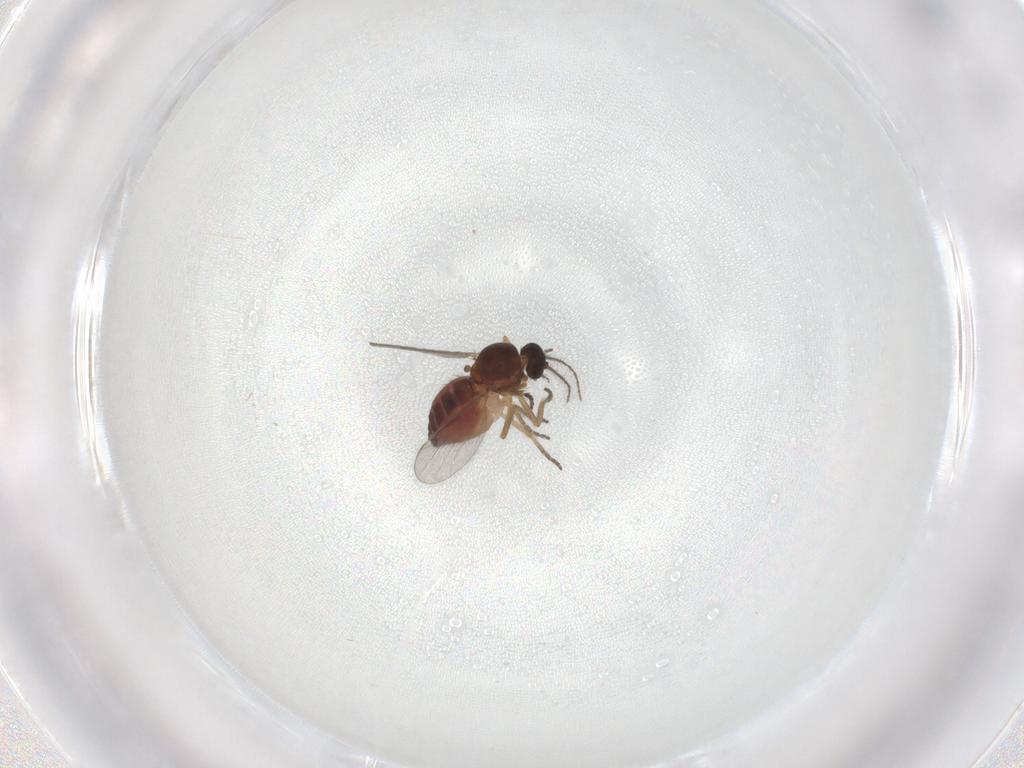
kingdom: Animalia
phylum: Arthropoda
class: Insecta
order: Diptera
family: Ceratopogonidae
